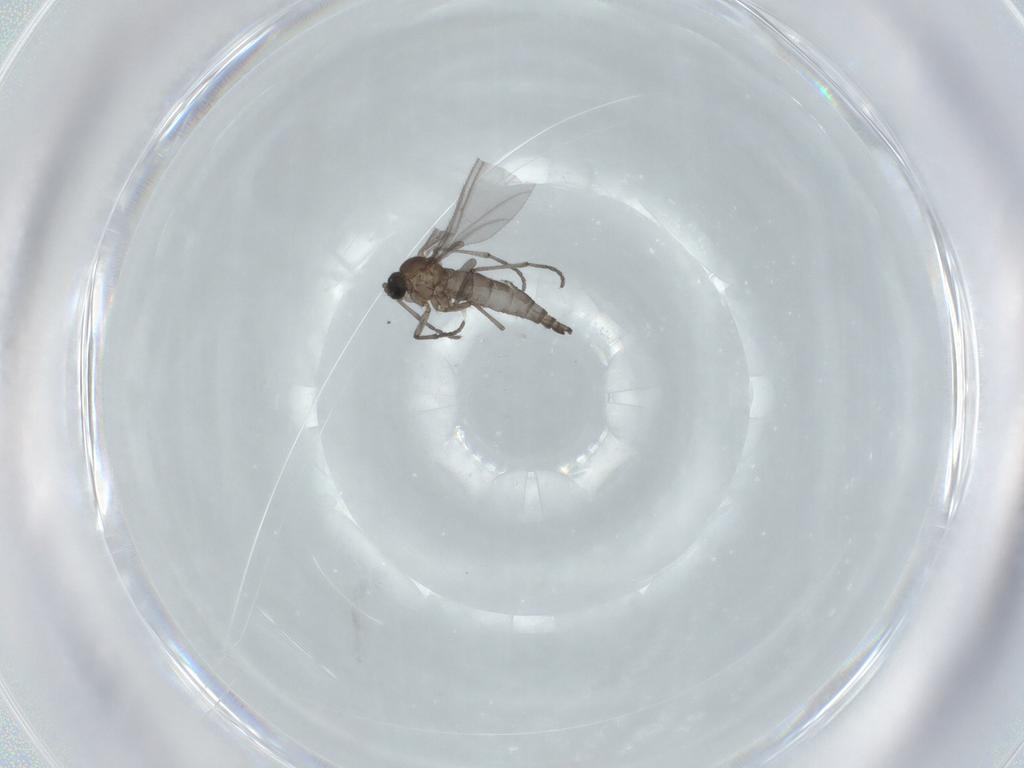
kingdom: Animalia
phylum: Arthropoda
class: Insecta
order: Diptera
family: Sciaridae
